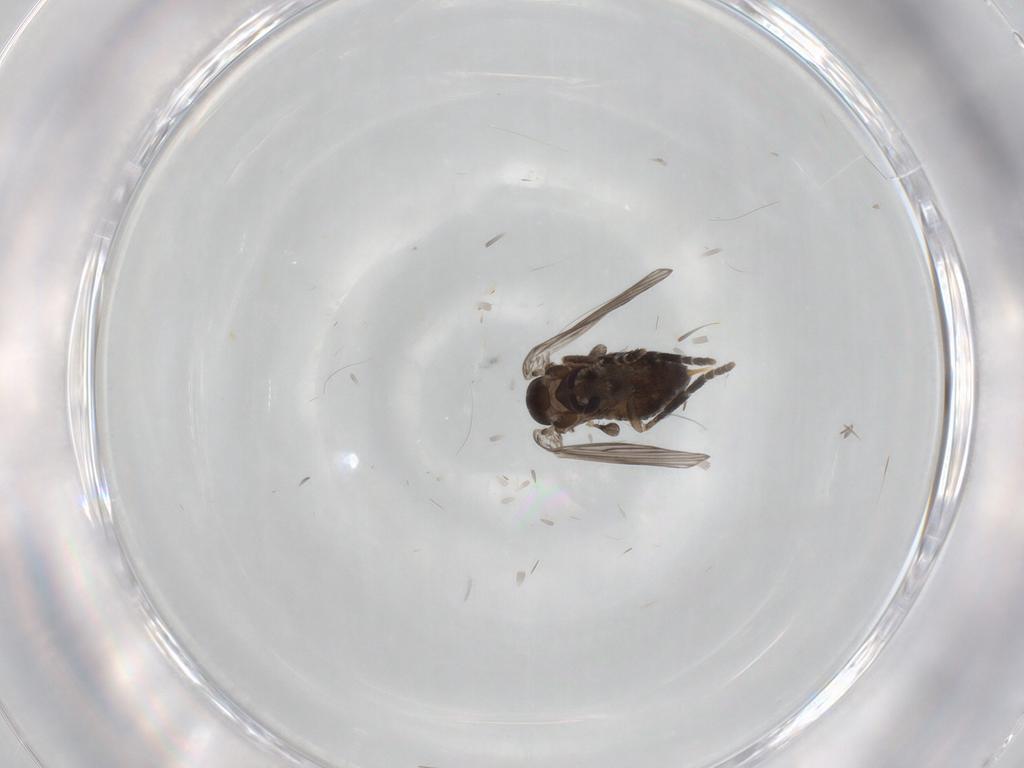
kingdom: Animalia
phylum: Arthropoda
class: Insecta
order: Diptera
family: Psychodidae
